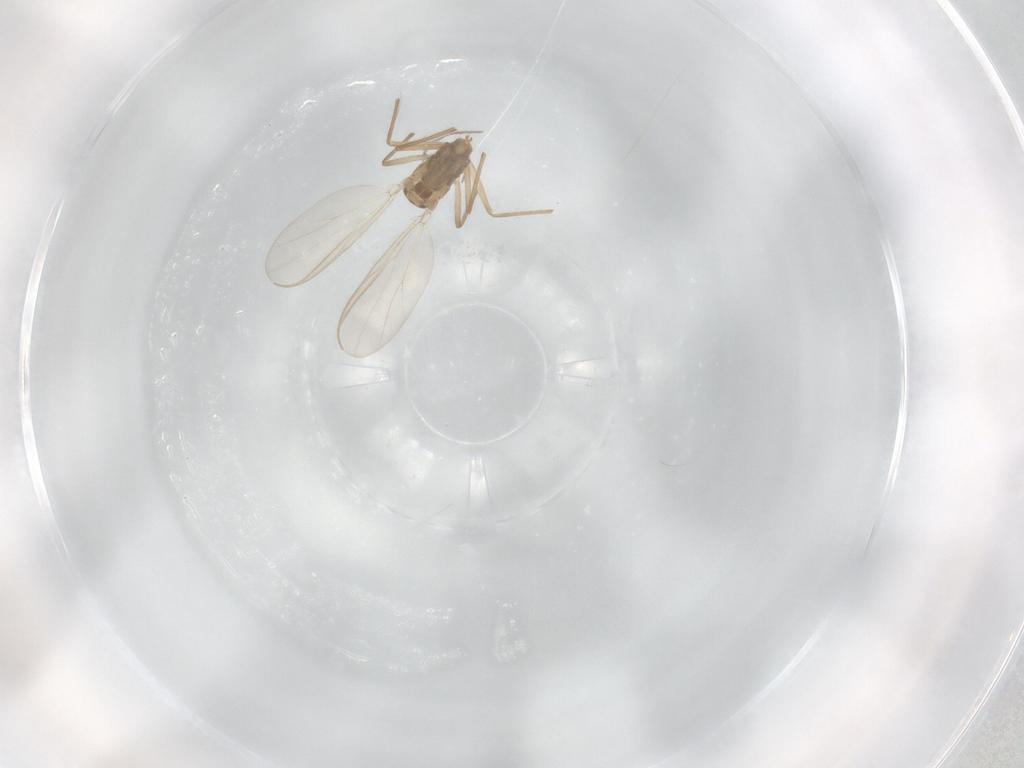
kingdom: Animalia
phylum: Arthropoda
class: Insecta
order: Diptera
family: Chironomidae
